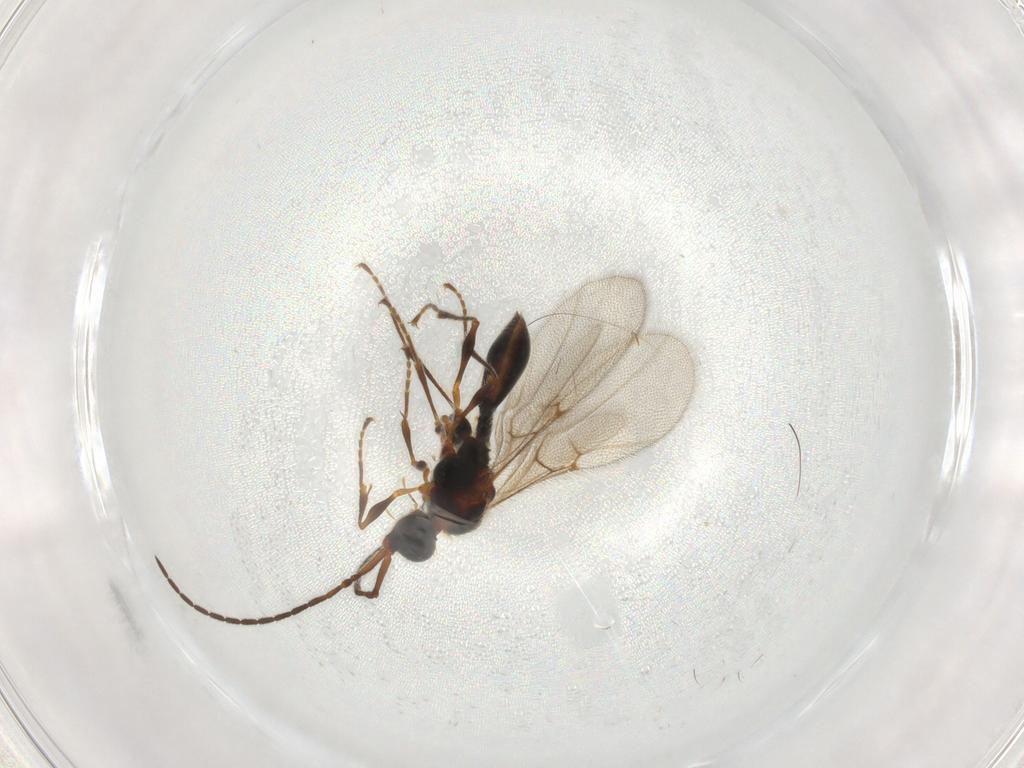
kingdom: Animalia
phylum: Arthropoda
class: Insecta
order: Hymenoptera
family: Diapriidae
